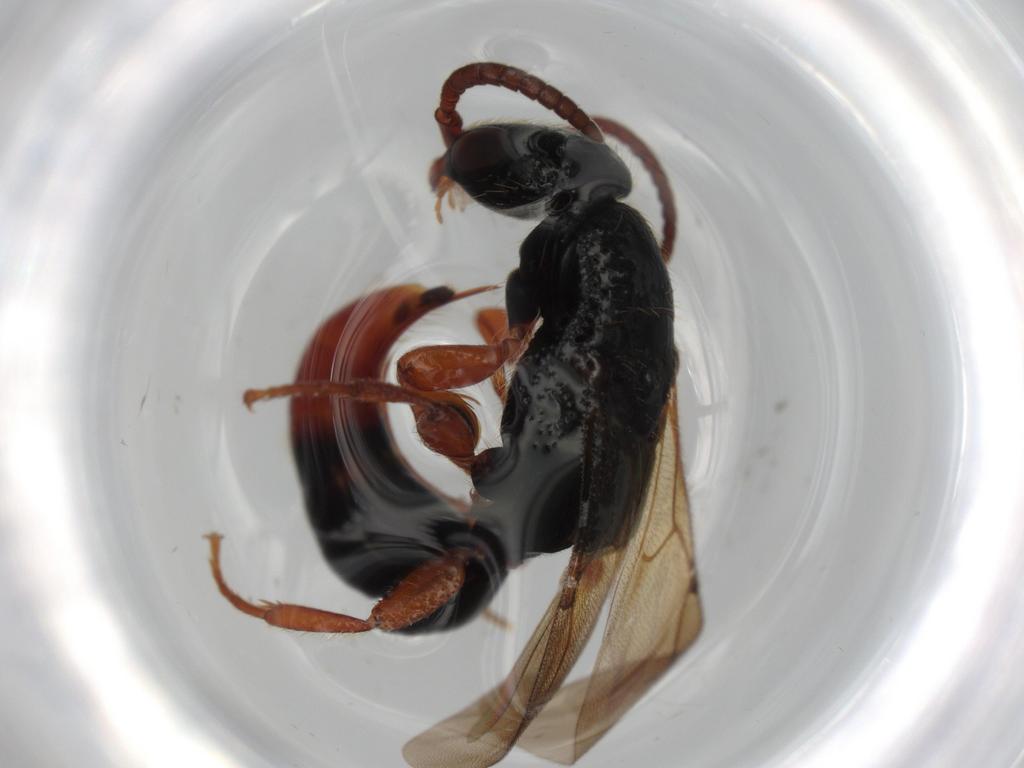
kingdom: Animalia
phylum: Arthropoda
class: Insecta
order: Hymenoptera
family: Bethylidae
